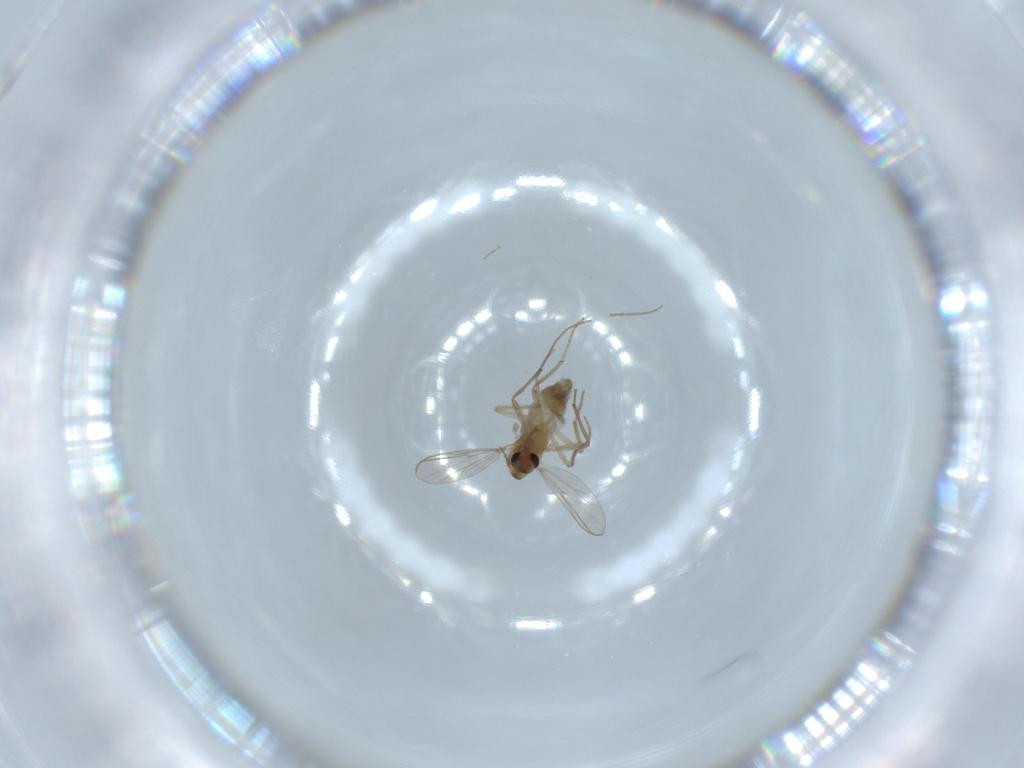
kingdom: Animalia
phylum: Arthropoda
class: Insecta
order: Diptera
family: Chironomidae
